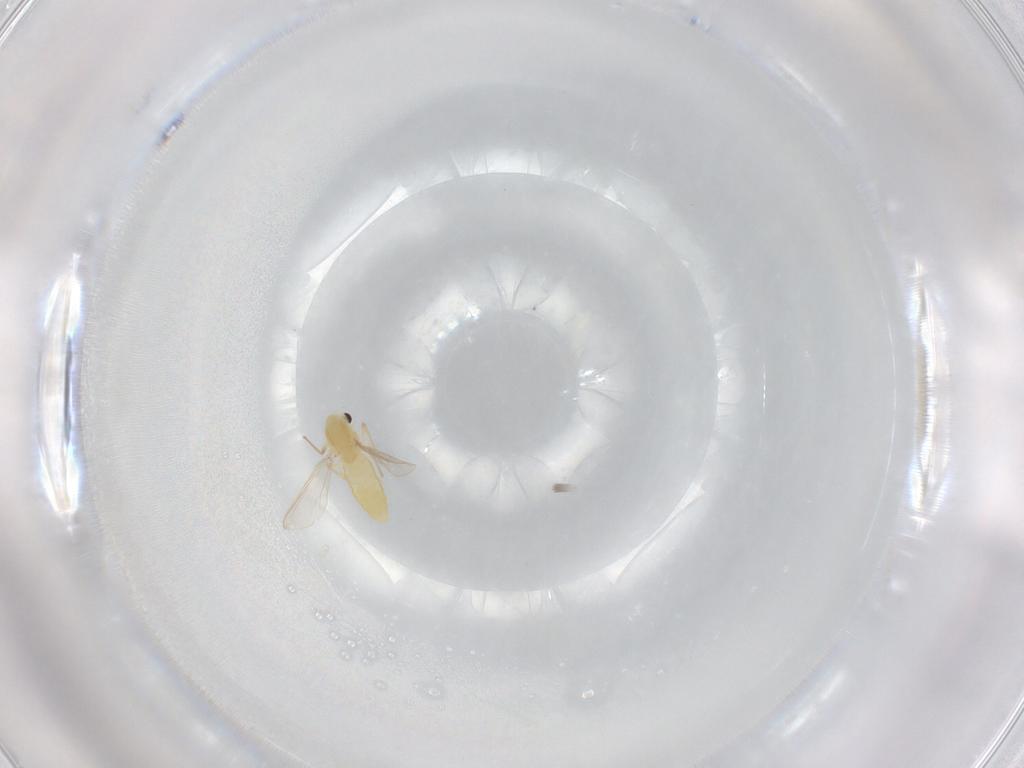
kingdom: Animalia
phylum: Arthropoda
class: Insecta
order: Diptera
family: Chironomidae
